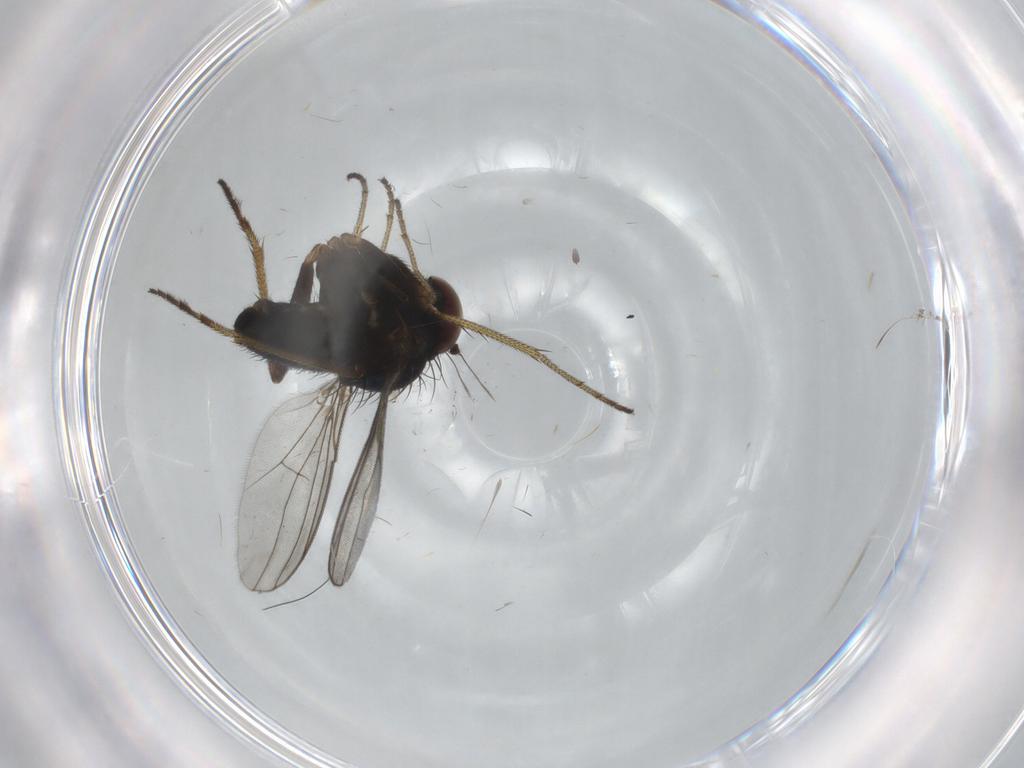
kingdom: Animalia
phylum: Arthropoda
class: Insecta
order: Diptera
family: Dolichopodidae
